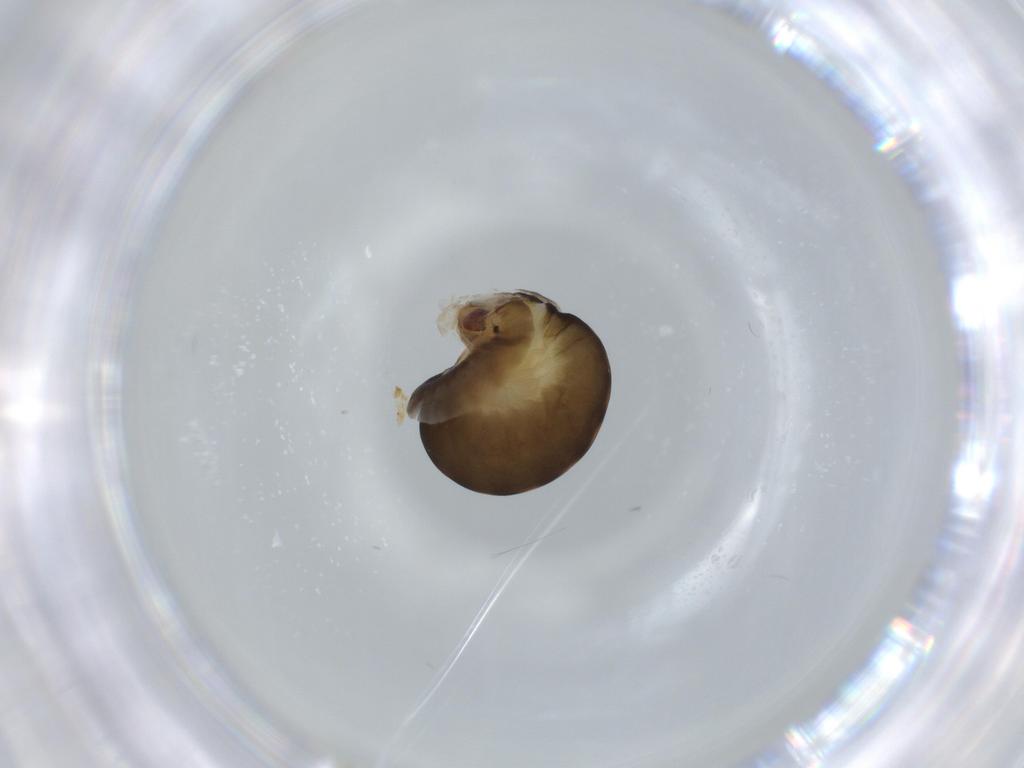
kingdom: Animalia
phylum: Arthropoda
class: Insecta
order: Hymenoptera
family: Dryinidae
